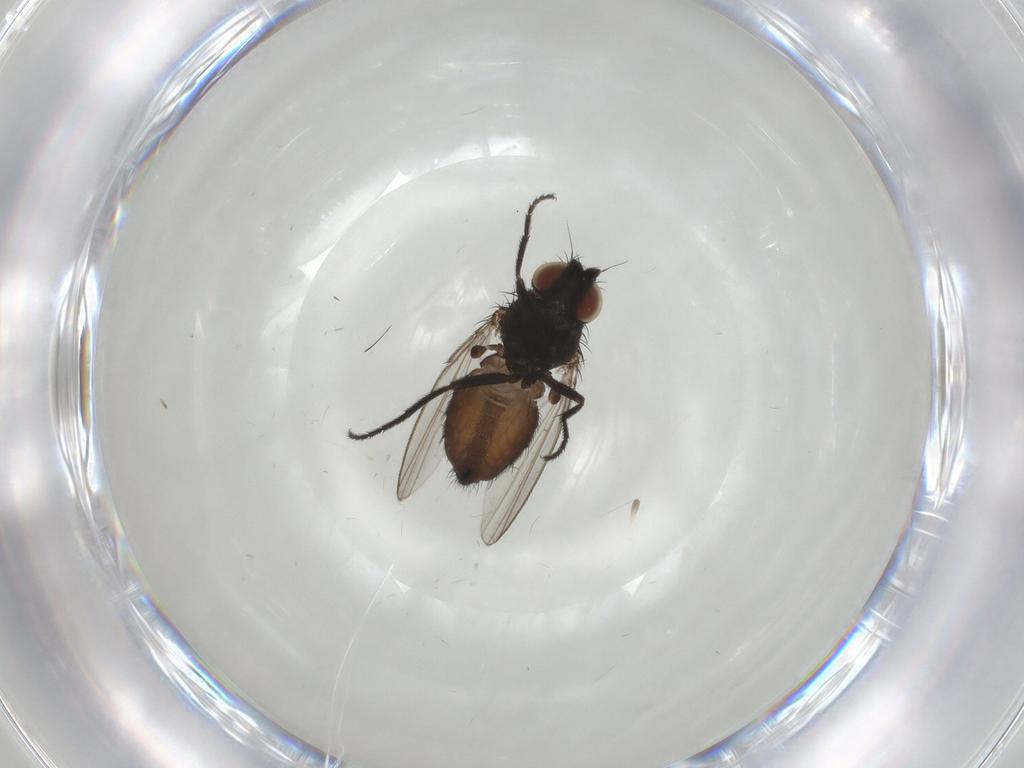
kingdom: Animalia
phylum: Arthropoda
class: Insecta
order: Diptera
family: Milichiidae
